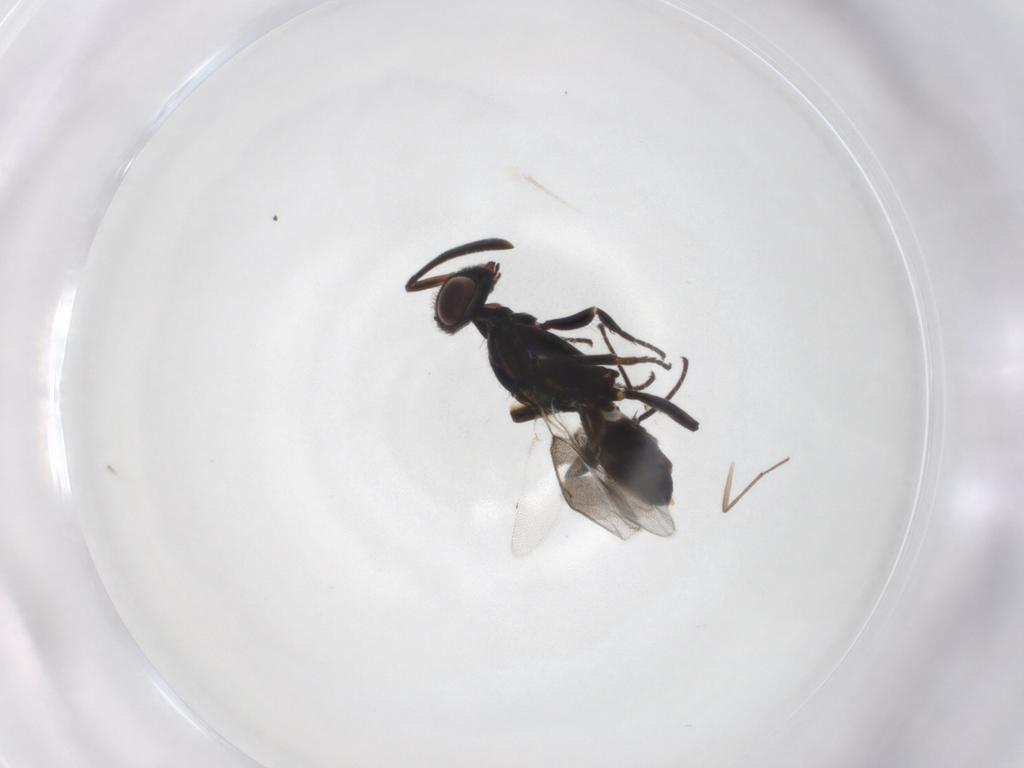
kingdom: Animalia
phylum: Arthropoda
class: Insecta
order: Hymenoptera
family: Eupelmidae
